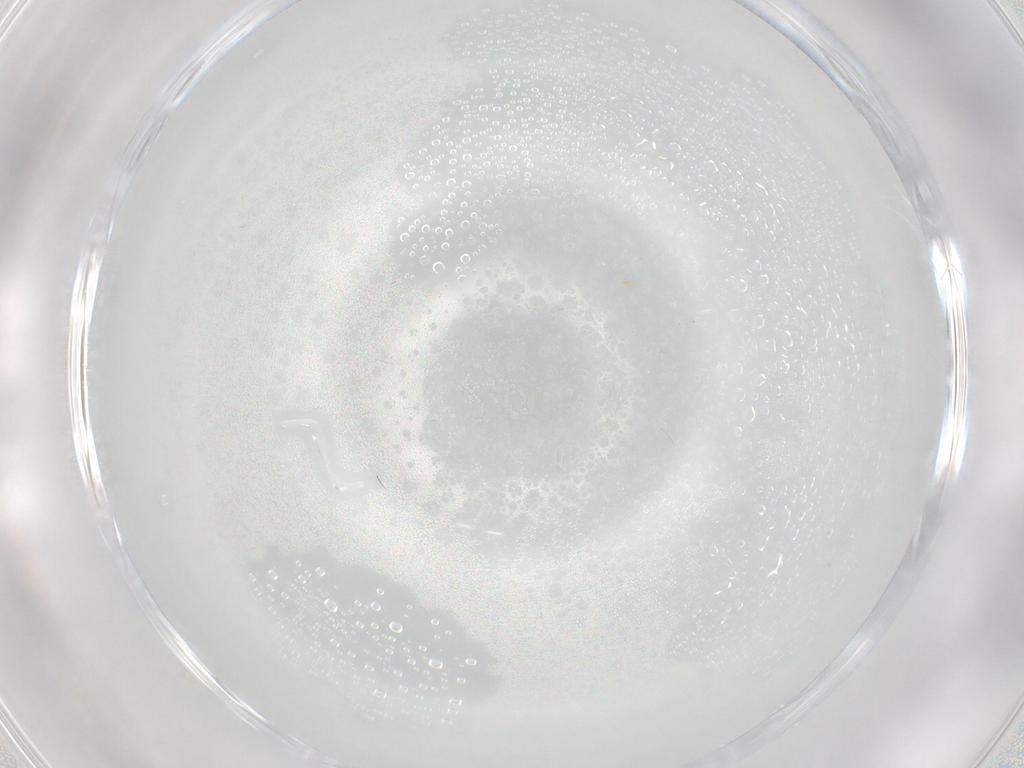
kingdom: Animalia
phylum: Arthropoda
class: Insecta
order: Diptera
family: Ceratopogonidae
